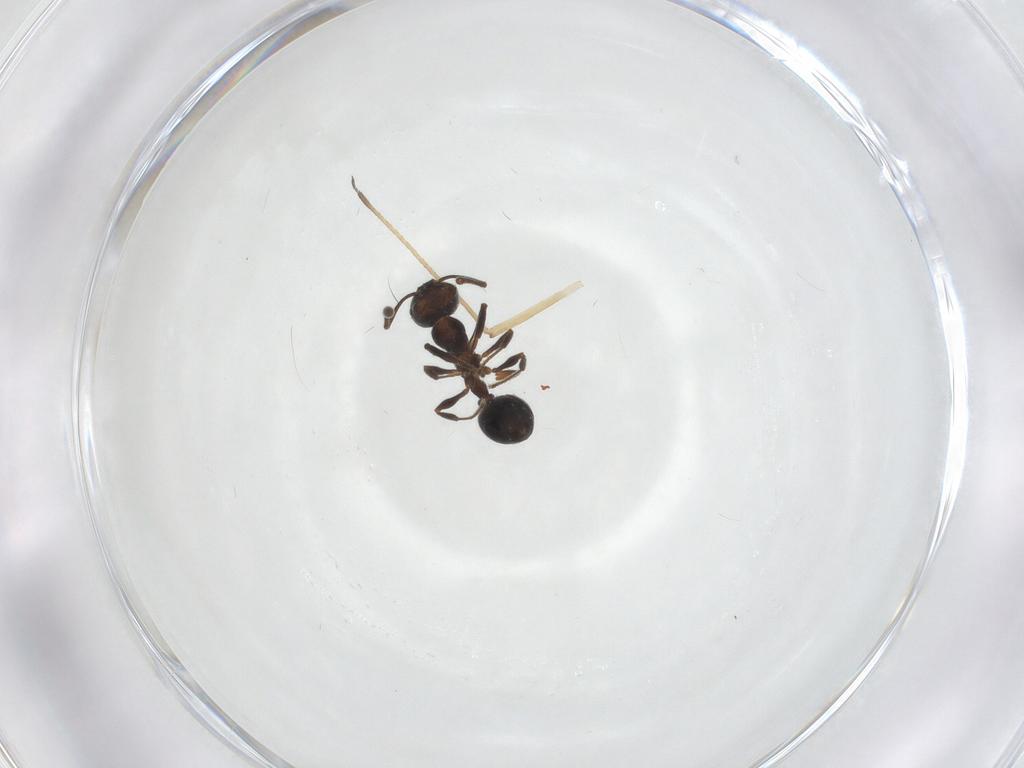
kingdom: Animalia
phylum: Arthropoda
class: Insecta
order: Hymenoptera
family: Formicidae
